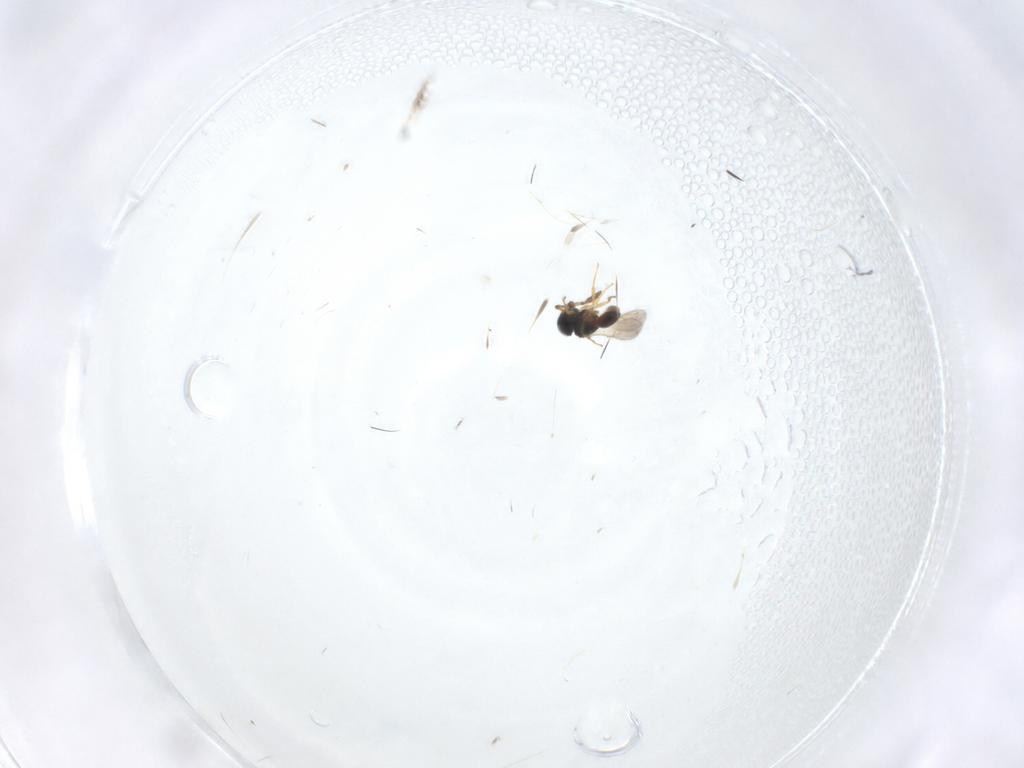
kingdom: Animalia
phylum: Arthropoda
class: Insecta
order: Hymenoptera
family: Scelionidae
